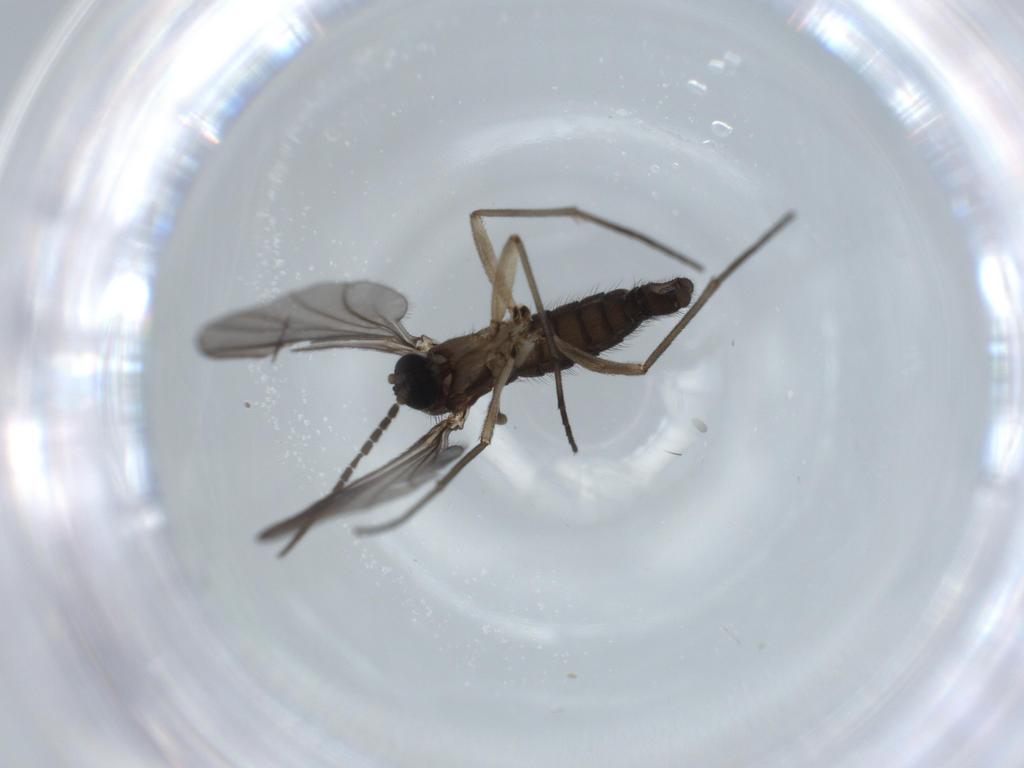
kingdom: Animalia
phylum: Arthropoda
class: Insecta
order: Diptera
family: Sciaridae
